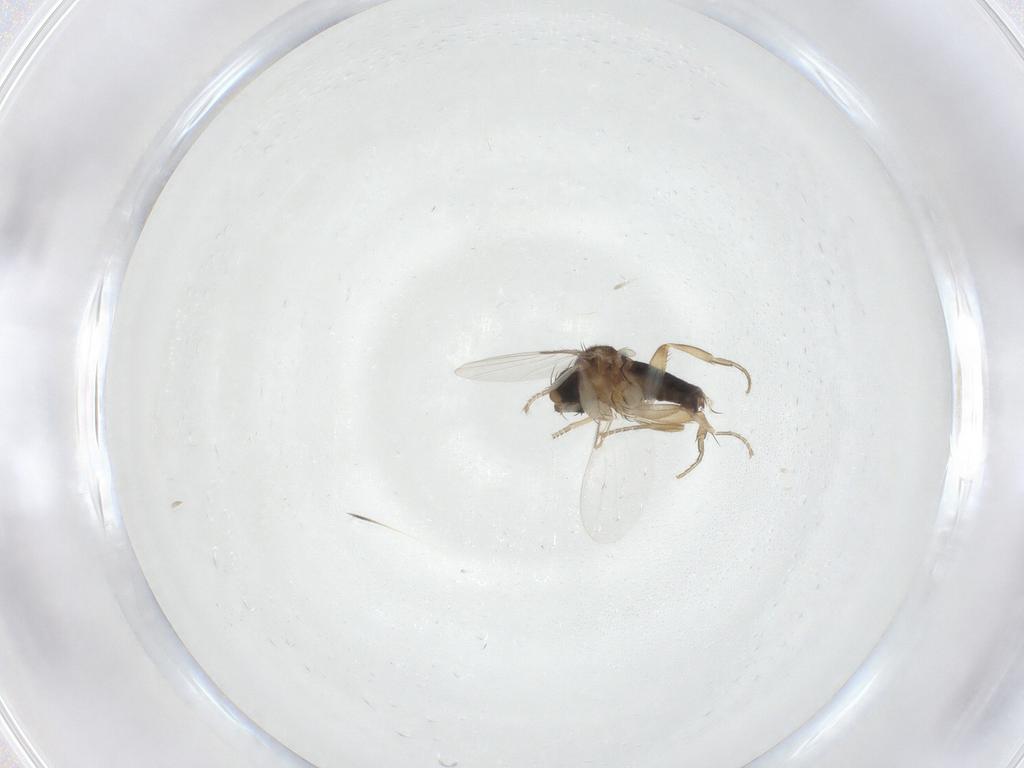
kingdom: Animalia
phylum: Arthropoda
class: Insecta
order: Diptera
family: Phoridae
